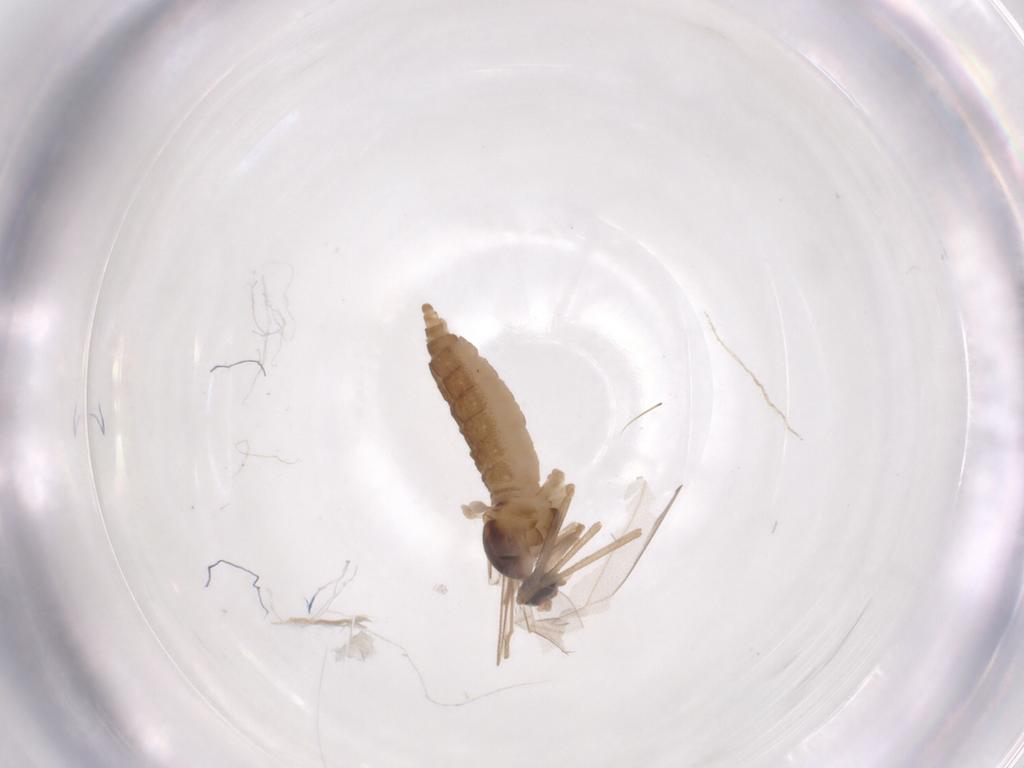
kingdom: Animalia
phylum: Arthropoda
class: Insecta
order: Diptera
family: Cecidomyiidae
